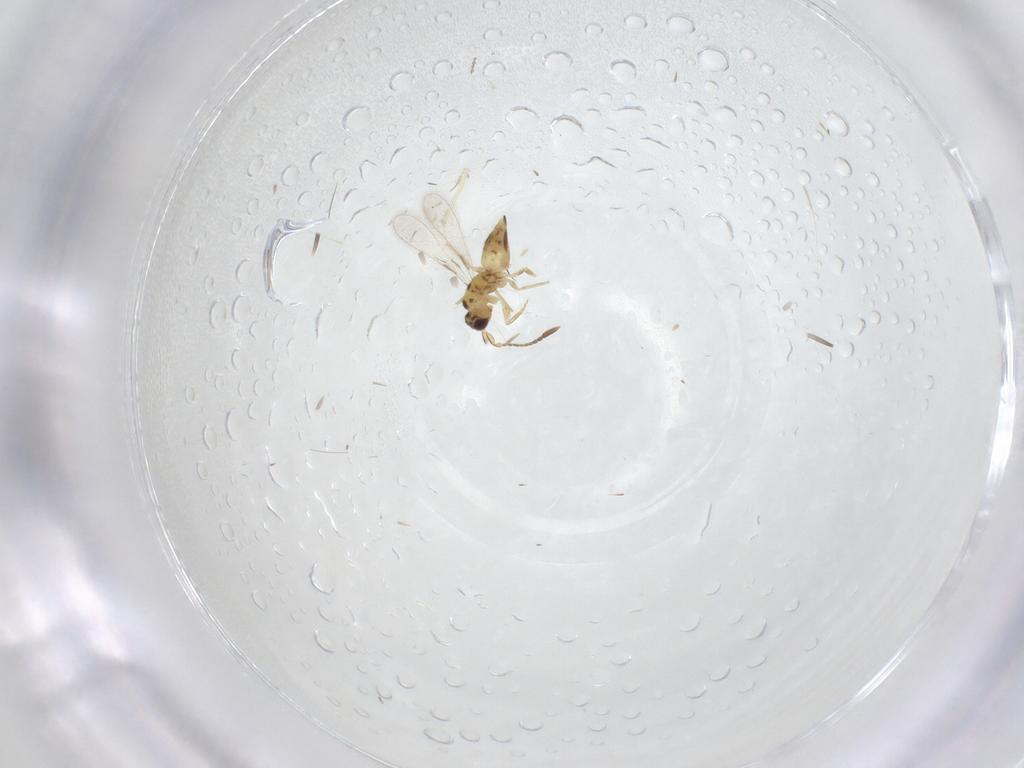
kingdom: Animalia
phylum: Arthropoda
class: Insecta
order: Hymenoptera
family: Mymaridae
